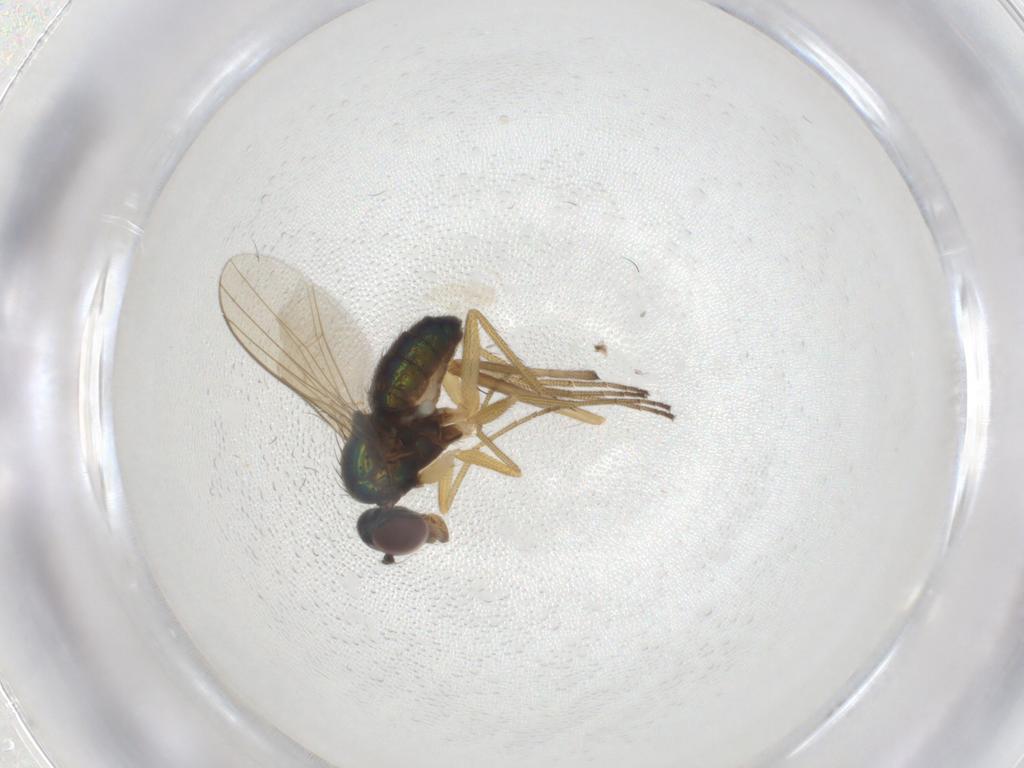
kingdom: Animalia
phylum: Arthropoda
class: Insecta
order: Diptera
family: Dolichopodidae
